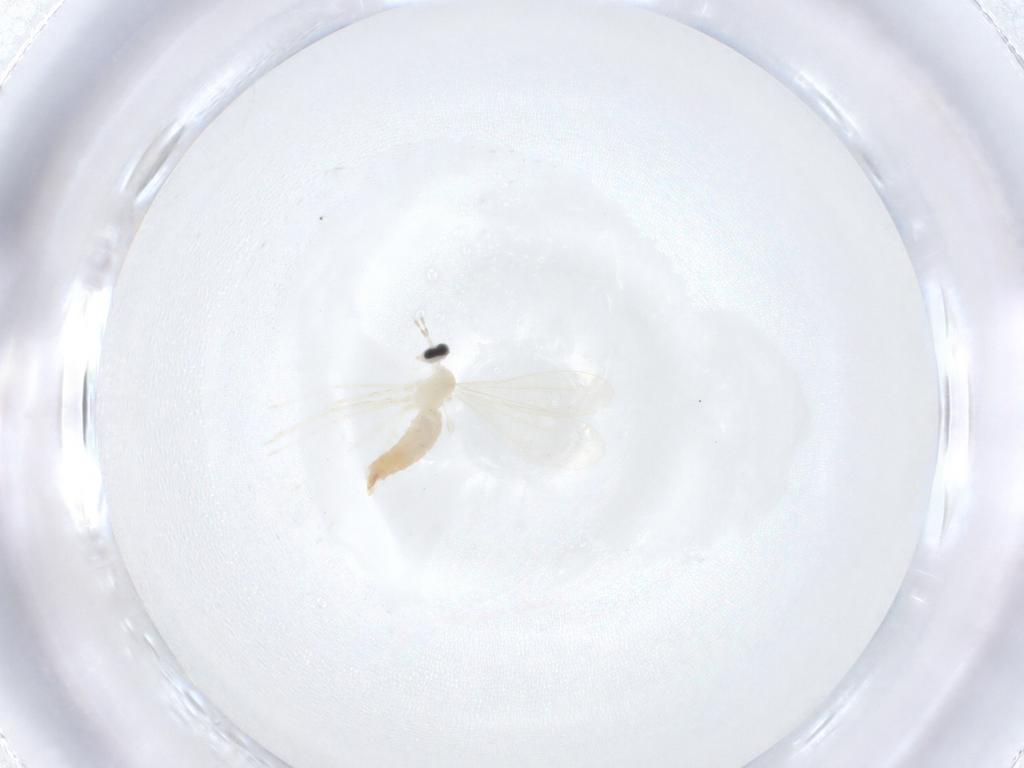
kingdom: Animalia
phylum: Arthropoda
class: Insecta
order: Diptera
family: Cecidomyiidae
